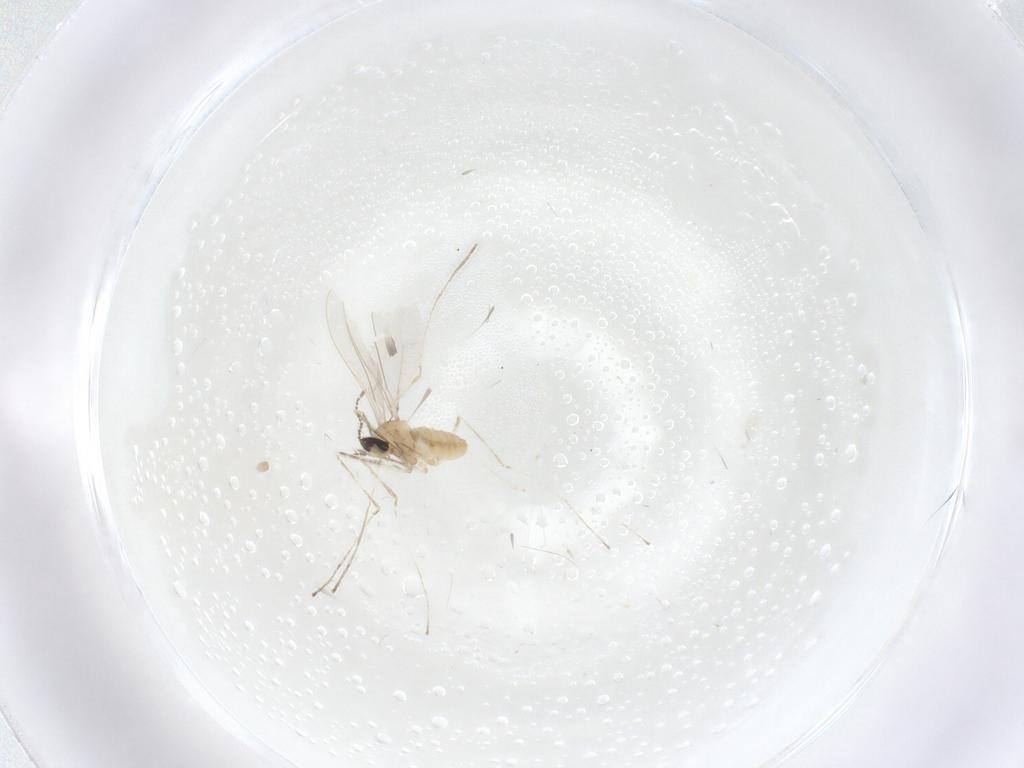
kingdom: Animalia
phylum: Arthropoda
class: Insecta
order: Diptera
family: Cecidomyiidae
